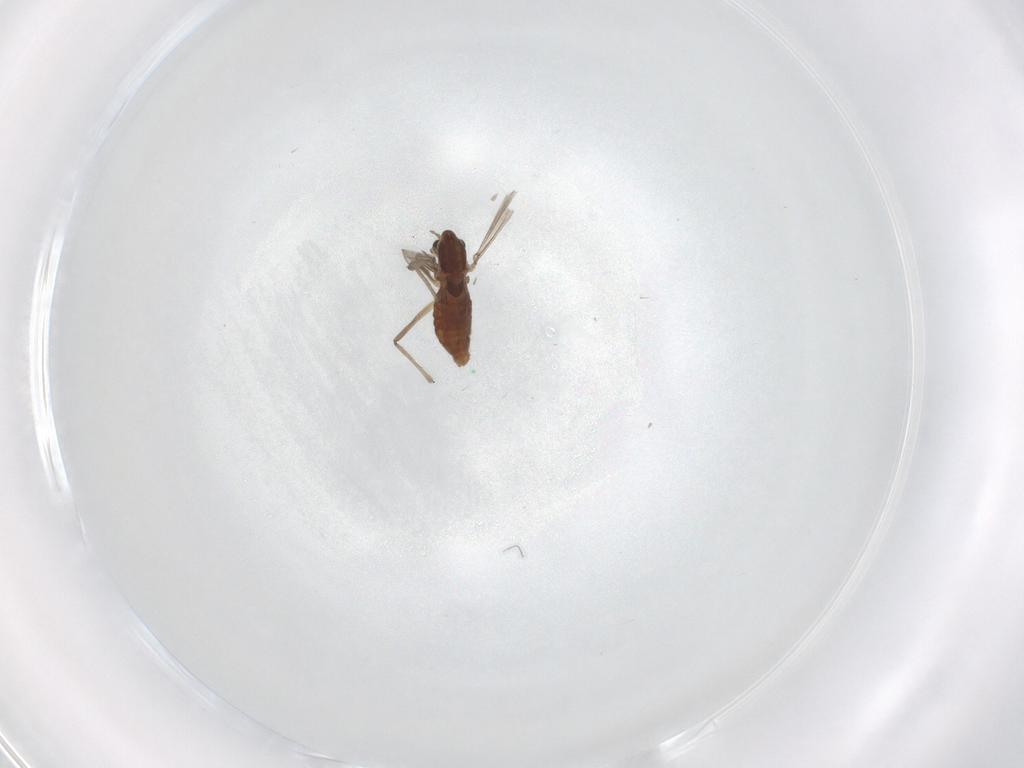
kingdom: Animalia
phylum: Arthropoda
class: Insecta
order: Diptera
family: Chironomidae
